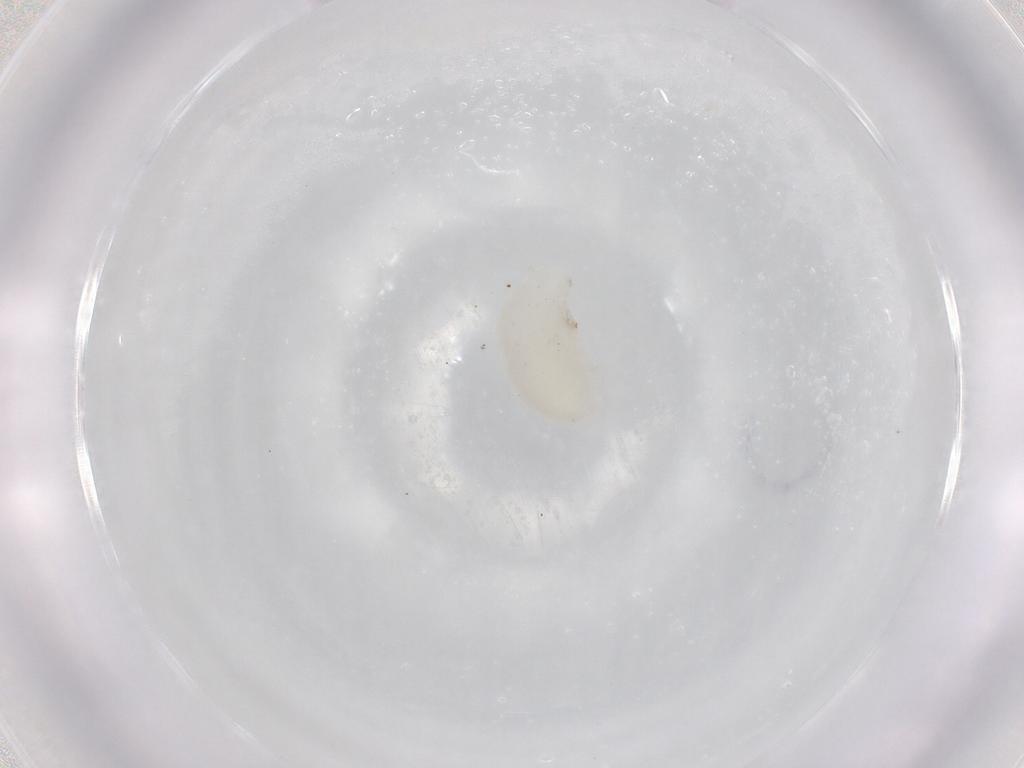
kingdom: Animalia
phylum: Arthropoda
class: Insecta
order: Hymenoptera
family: Eulophidae
